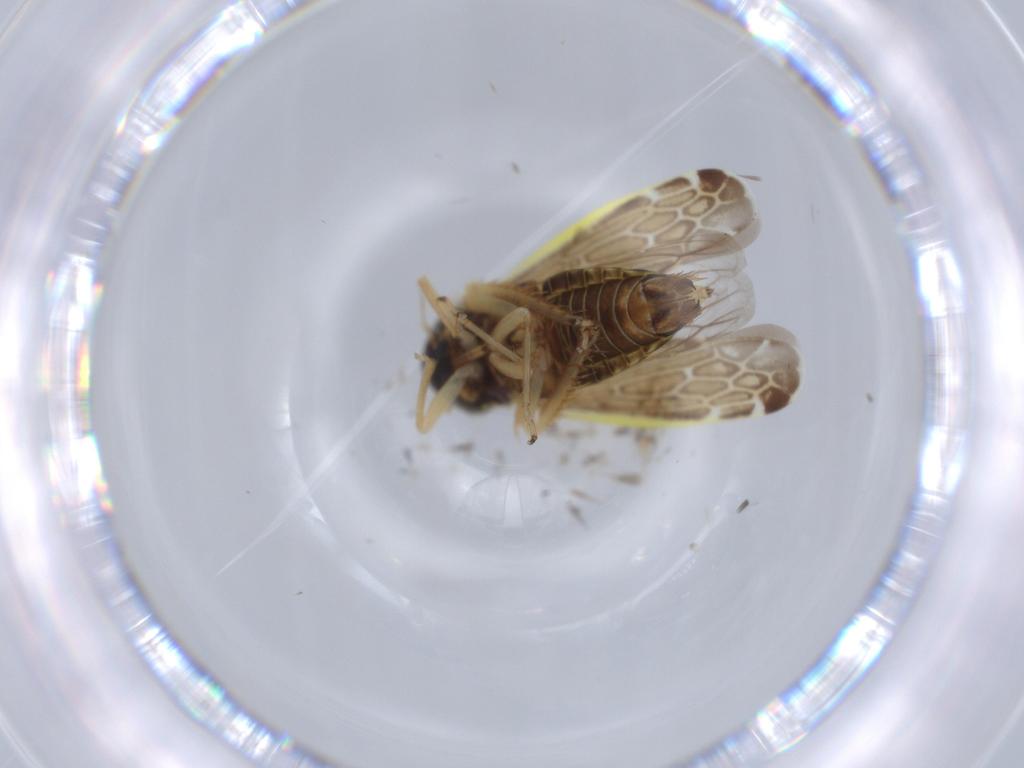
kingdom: Animalia
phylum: Arthropoda
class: Insecta
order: Hemiptera
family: Cicadellidae
